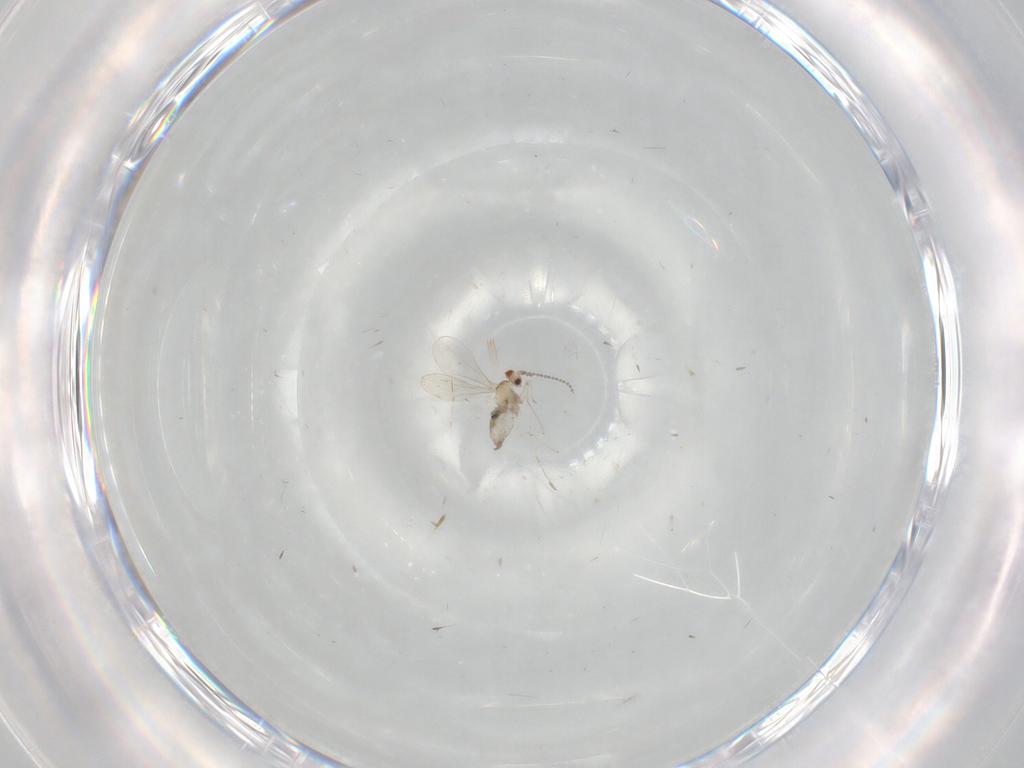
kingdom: Animalia
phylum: Arthropoda
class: Insecta
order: Diptera
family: Cecidomyiidae
